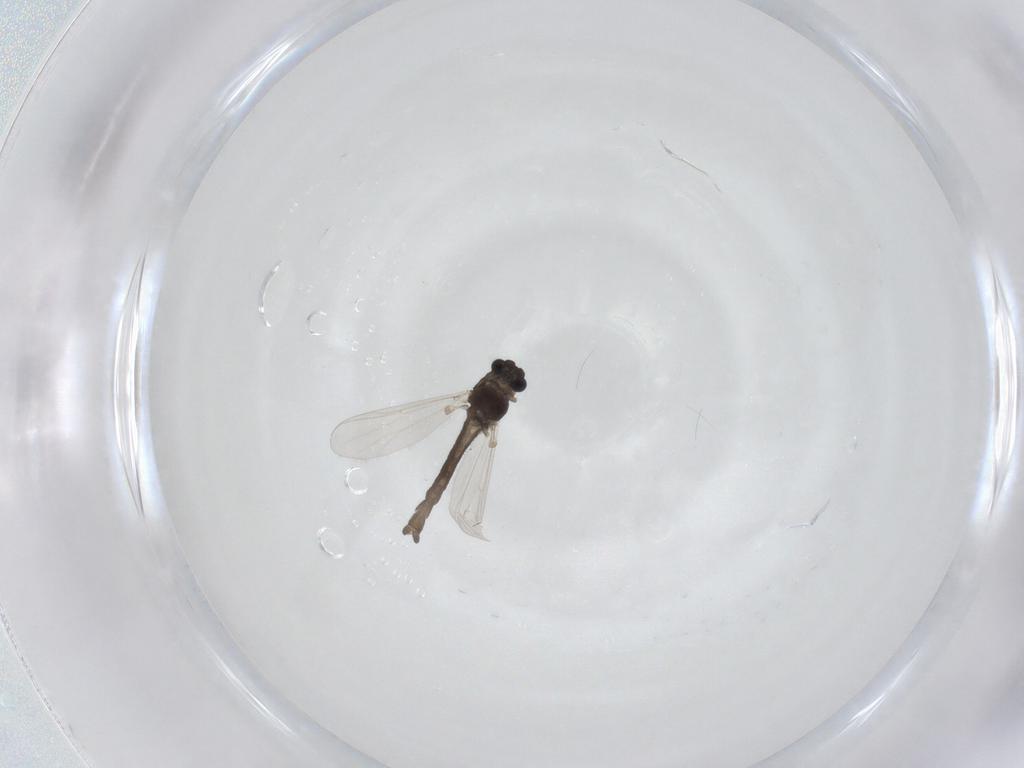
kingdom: Animalia
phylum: Arthropoda
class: Insecta
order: Diptera
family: Chironomidae
